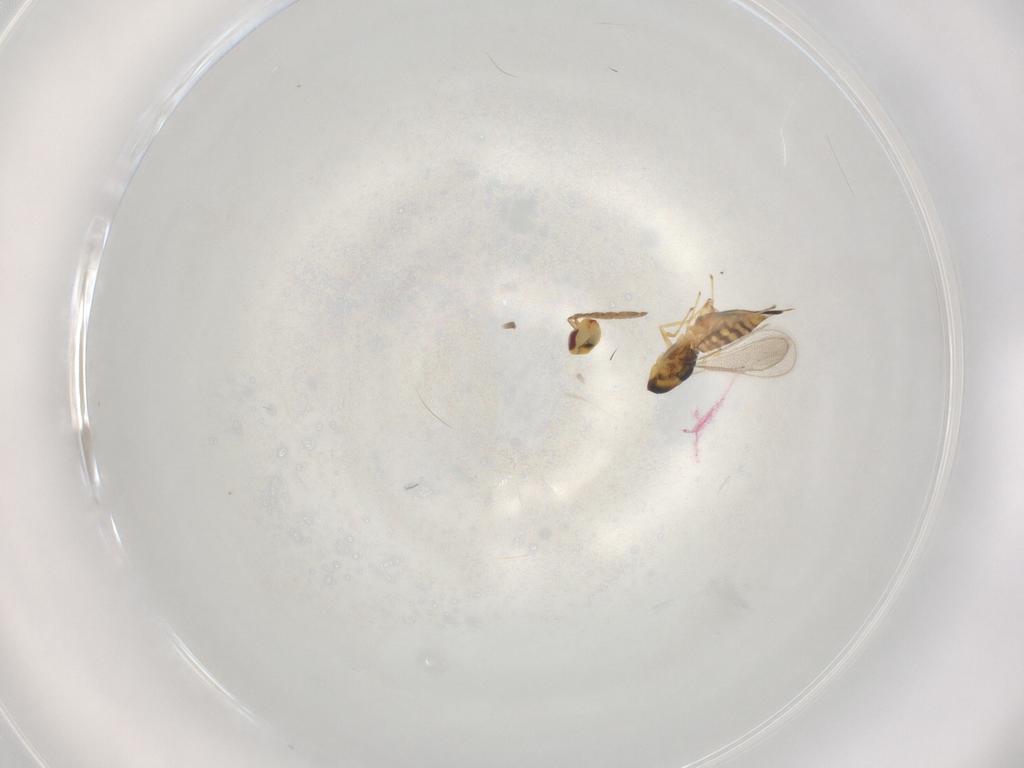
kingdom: Animalia
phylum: Arthropoda
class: Insecta
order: Hymenoptera
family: Eulophidae
